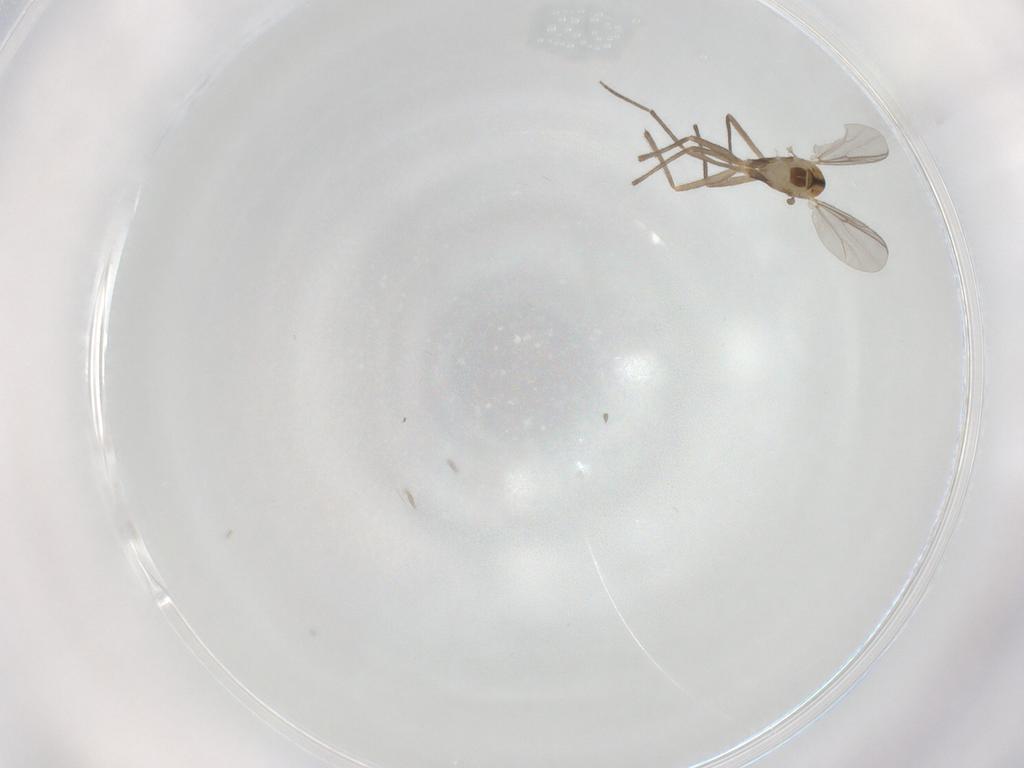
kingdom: Animalia
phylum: Arthropoda
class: Insecta
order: Diptera
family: Chironomidae
